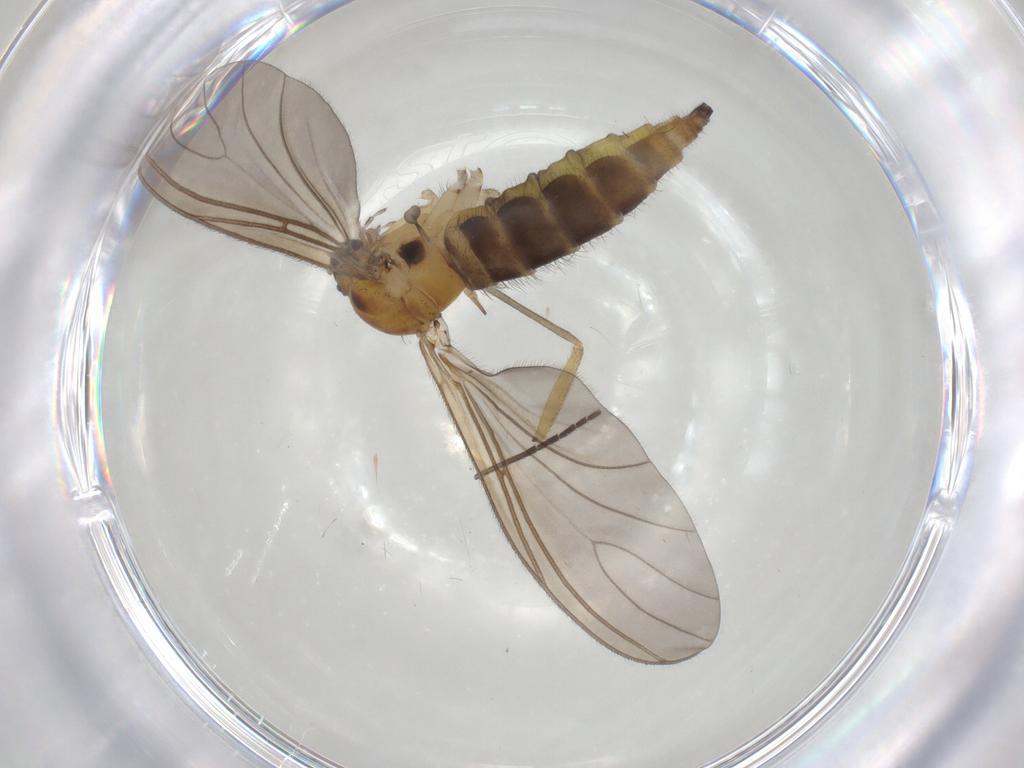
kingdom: Animalia
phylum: Arthropoda
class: Insecta
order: Diptera
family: Sciaridae
